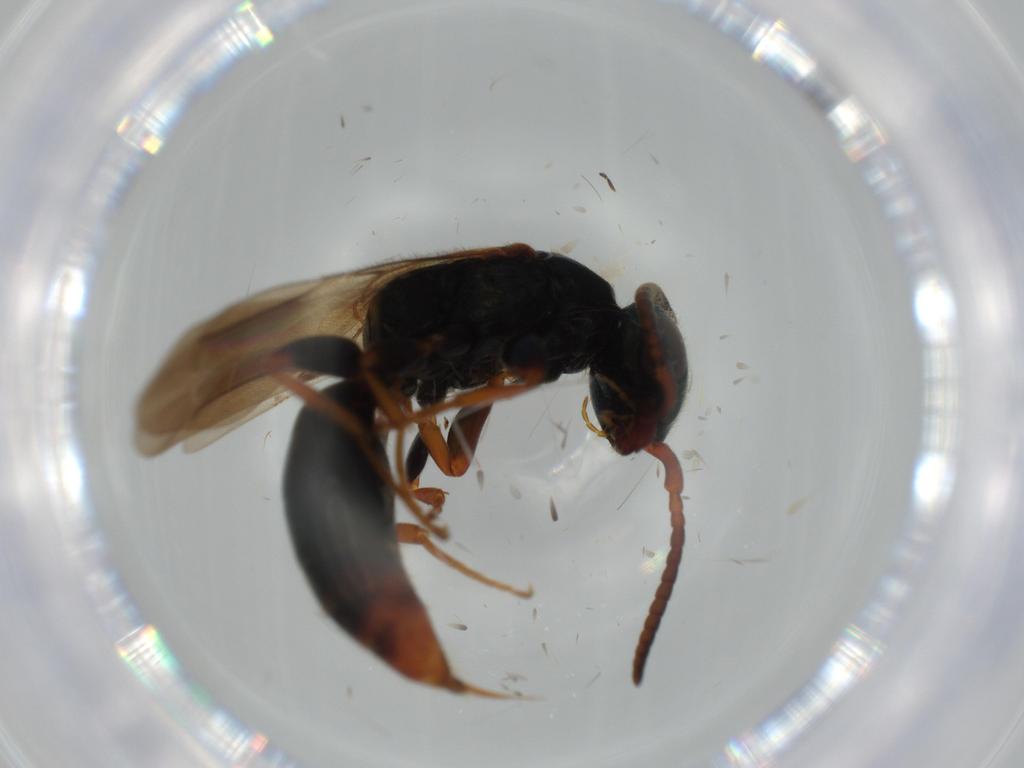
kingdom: Animalia
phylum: Arthropoda
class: Insecta
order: Hymenoptera
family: Bethylidae
